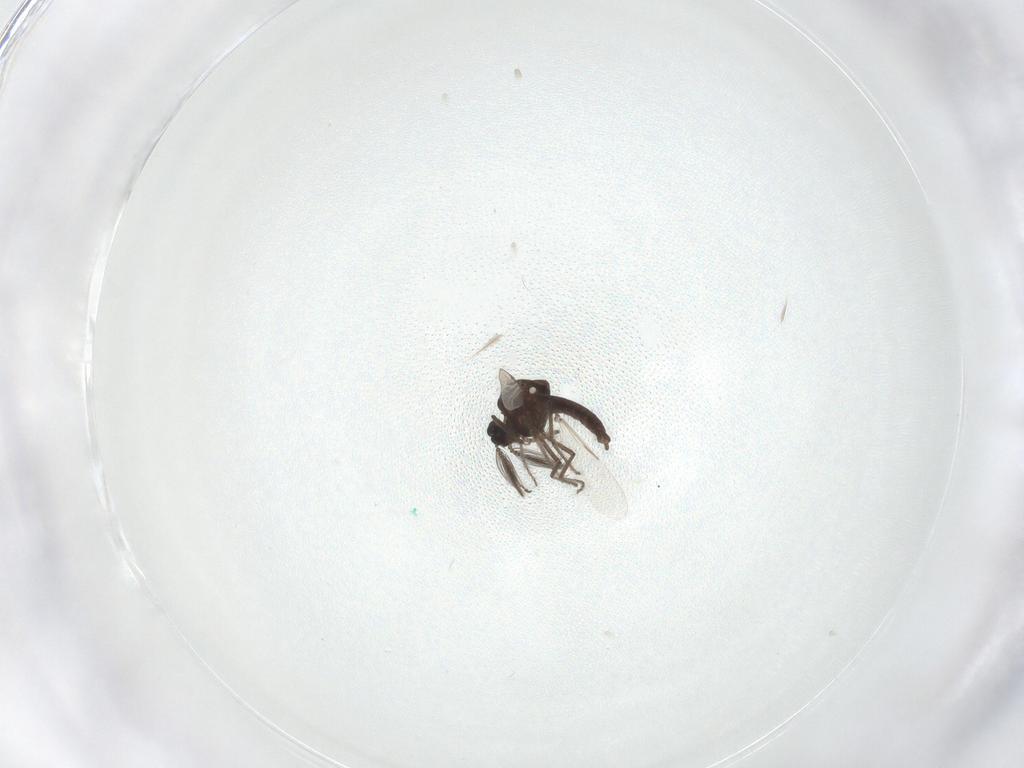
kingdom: Animalia
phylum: Arthropoda
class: Insecta
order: Diptera
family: Ceratopogonidae
